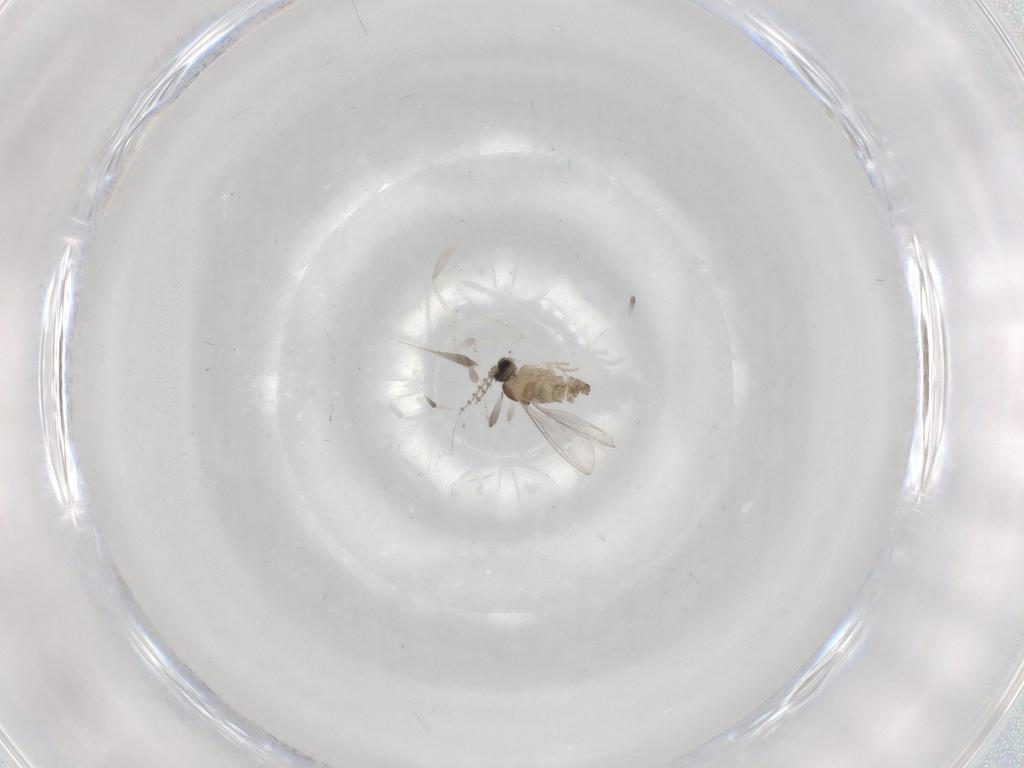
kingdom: Animalia
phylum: Arthropoda
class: Insecta
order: Diptera
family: Cecidomyiidae
